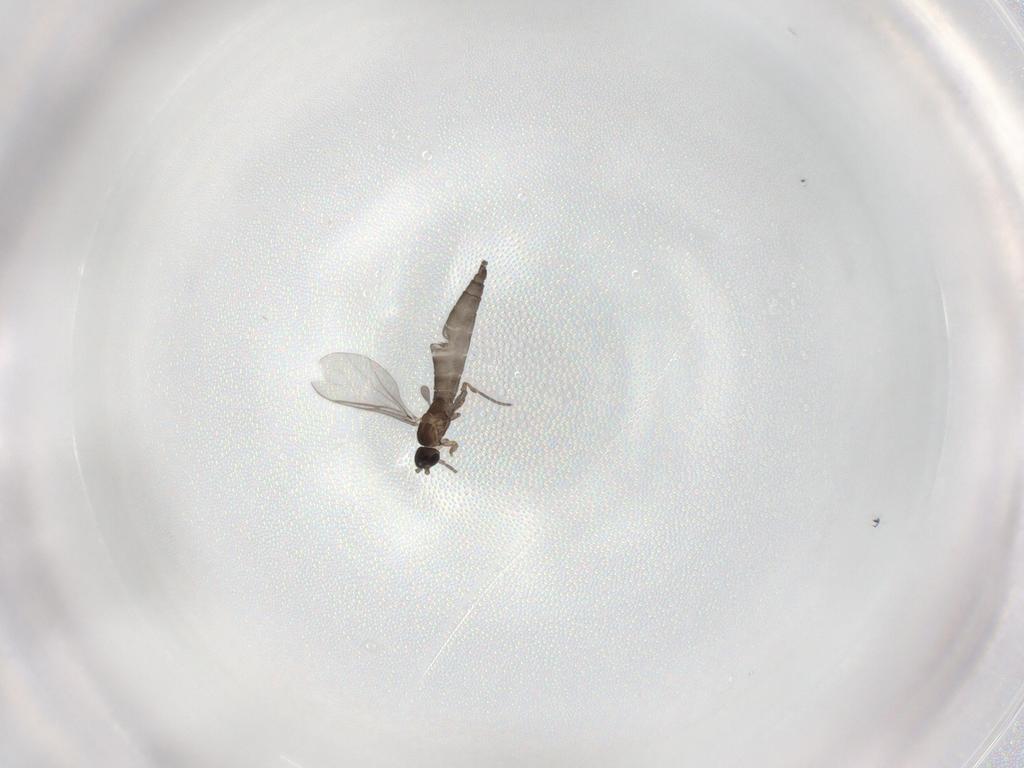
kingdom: Animalia
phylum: Arthropoda
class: Insecta
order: Diptera
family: Sciaridae
